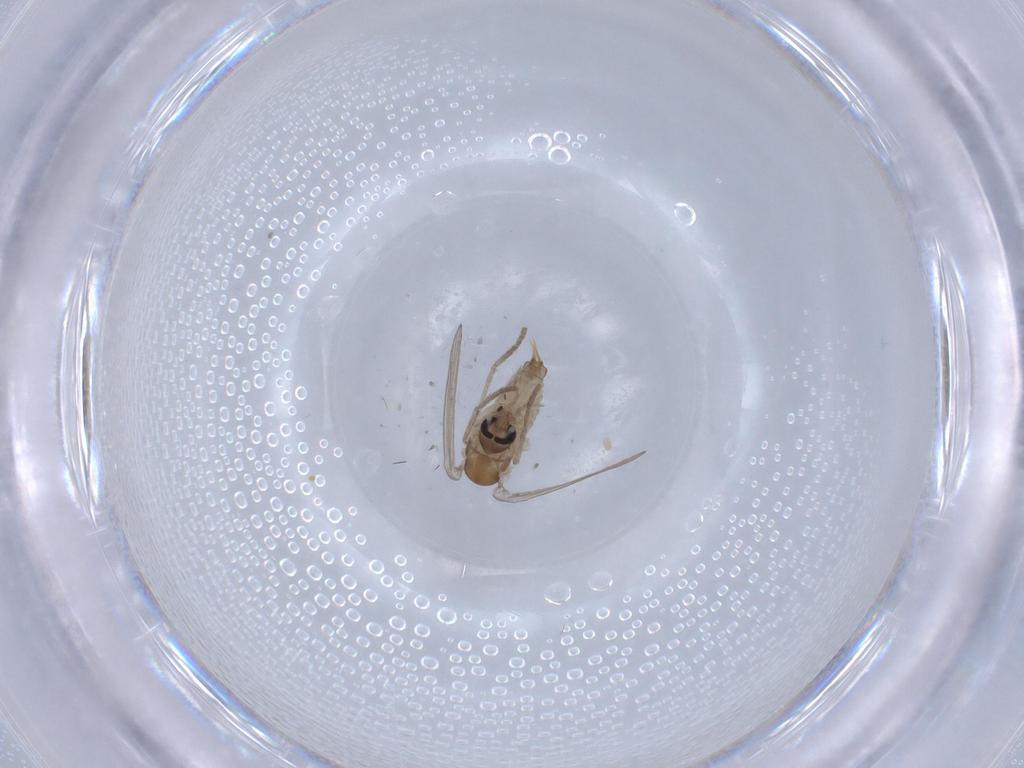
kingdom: Animalia
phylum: Arthropoda
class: Insecta
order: Diptera
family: Psychodidae
